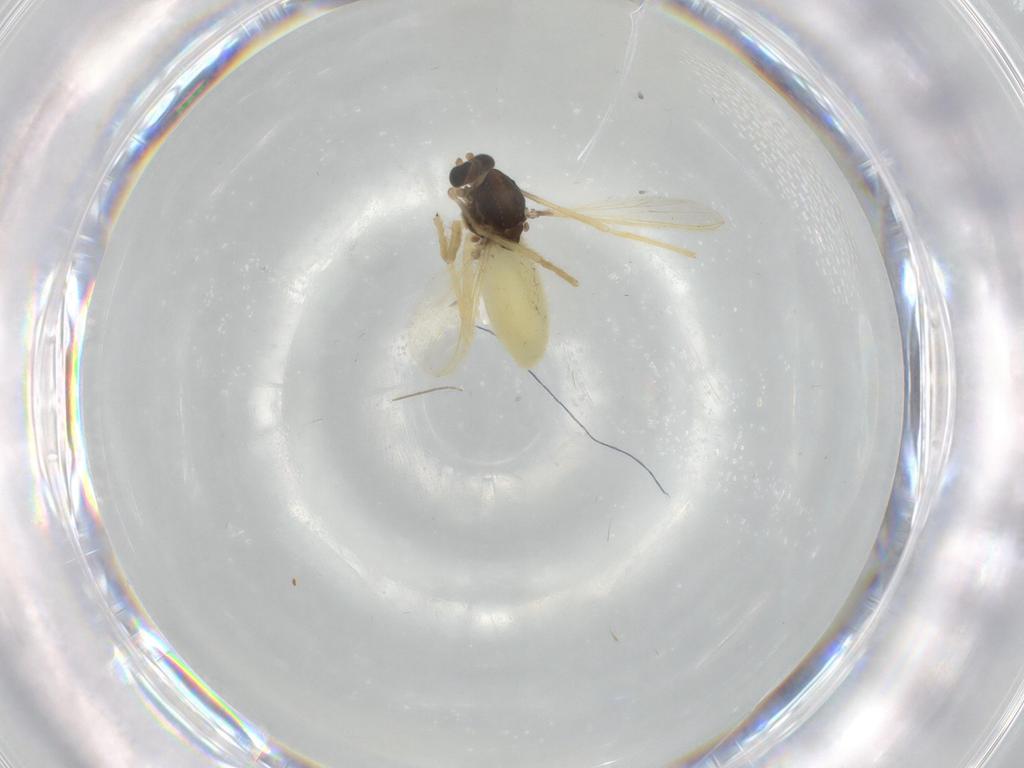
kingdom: Animalia
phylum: Arthropoda
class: Insecta
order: Diptera
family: Chironomidae
